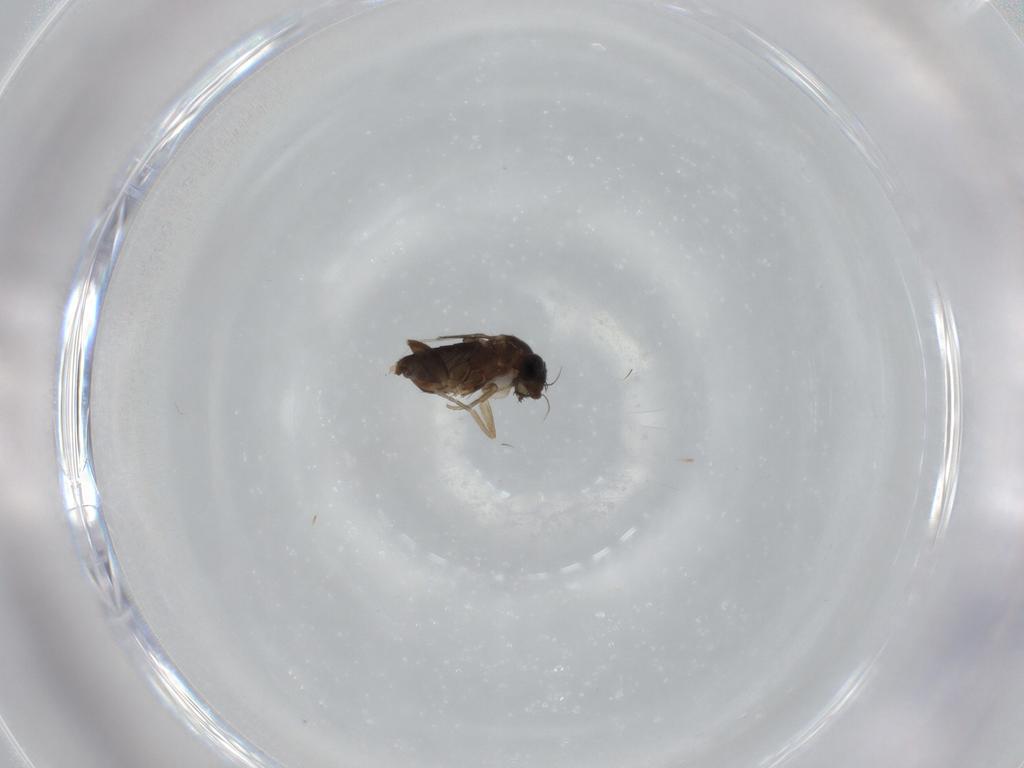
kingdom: Animalia
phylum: Arthropoda
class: Insecta
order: Diptera
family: Phoridae
